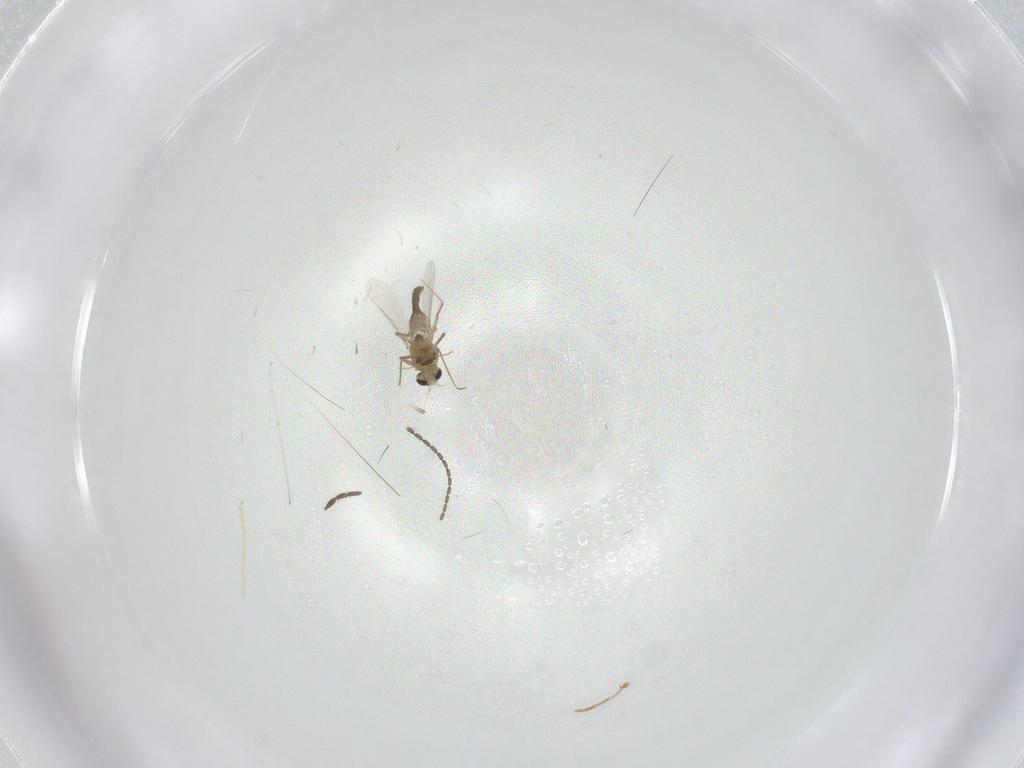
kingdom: Animalia
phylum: Arthropoda
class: Insecta
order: Diptera
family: Chironomidae
